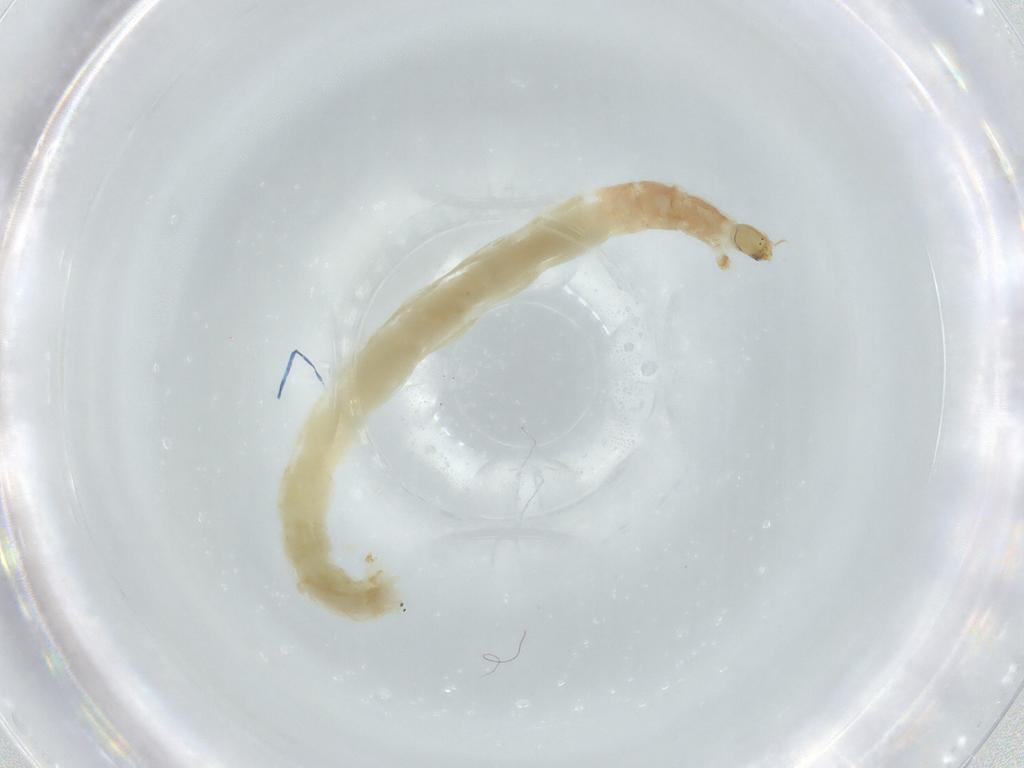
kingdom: Animalia
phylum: Arthropoda
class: Insecta
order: Diptera
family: Chironomidae
